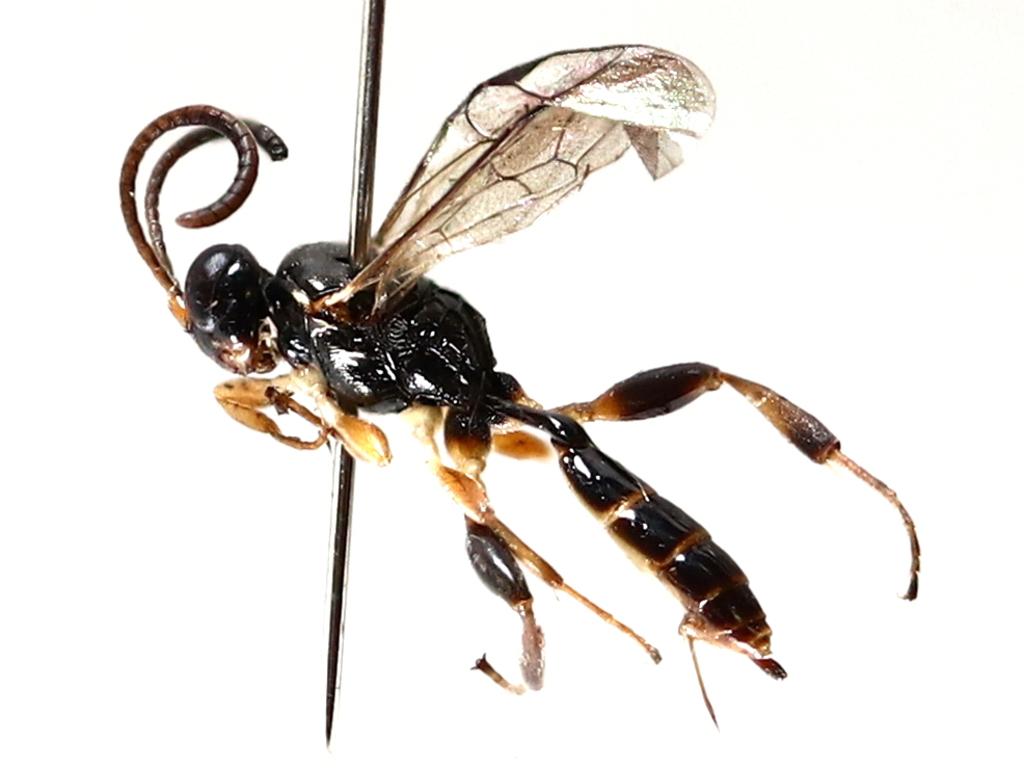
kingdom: Animalia
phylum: Arthropoda
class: Insecta
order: Diptera
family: Phoridae
